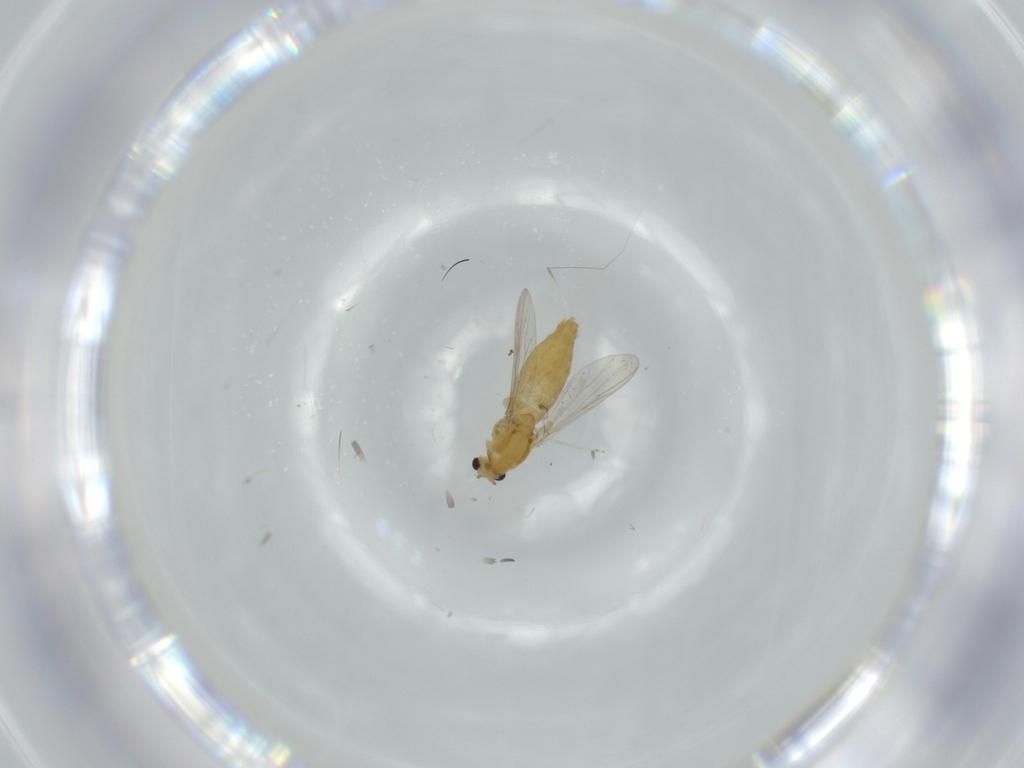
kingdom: Animalia
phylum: Arthropoda
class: Insecta
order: Diptera
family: Chironomidae
